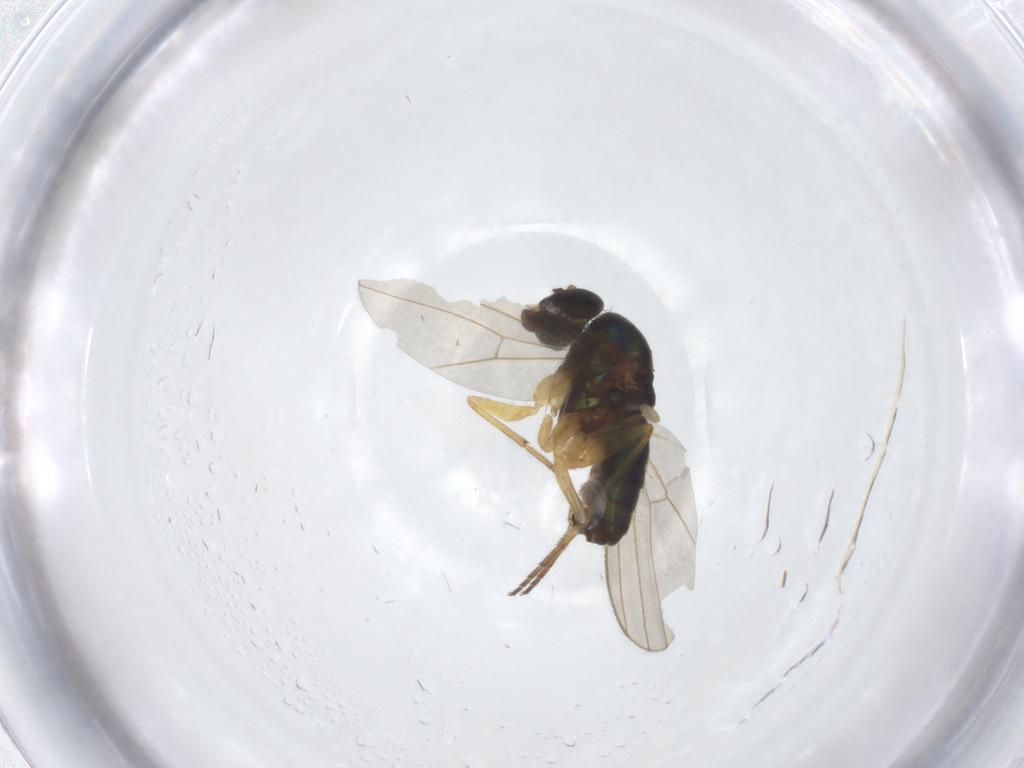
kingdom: Animalia
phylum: Arthropoda
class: Insecta
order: Diptera
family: Dolichopodidae
